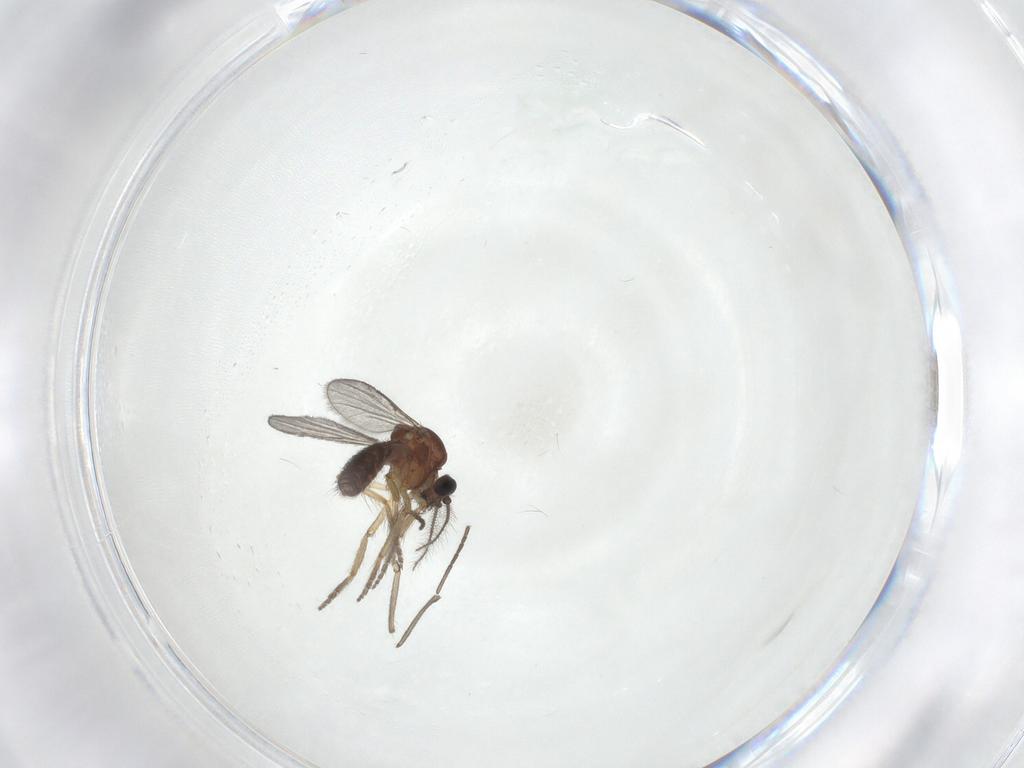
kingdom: Animalia
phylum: Arthropoda
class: Insecta
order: Diptera
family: Ceratopogonidae
